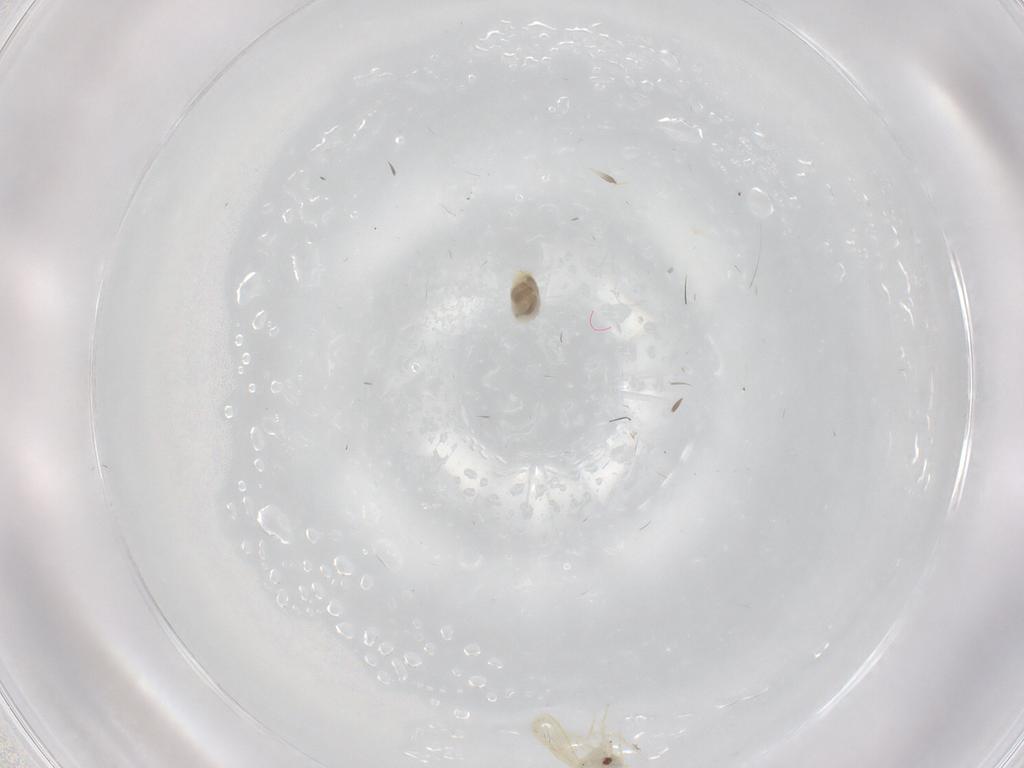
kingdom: Animalia
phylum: Arthropoda
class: Insecta
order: Hemiptera
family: Aleyrodidae
